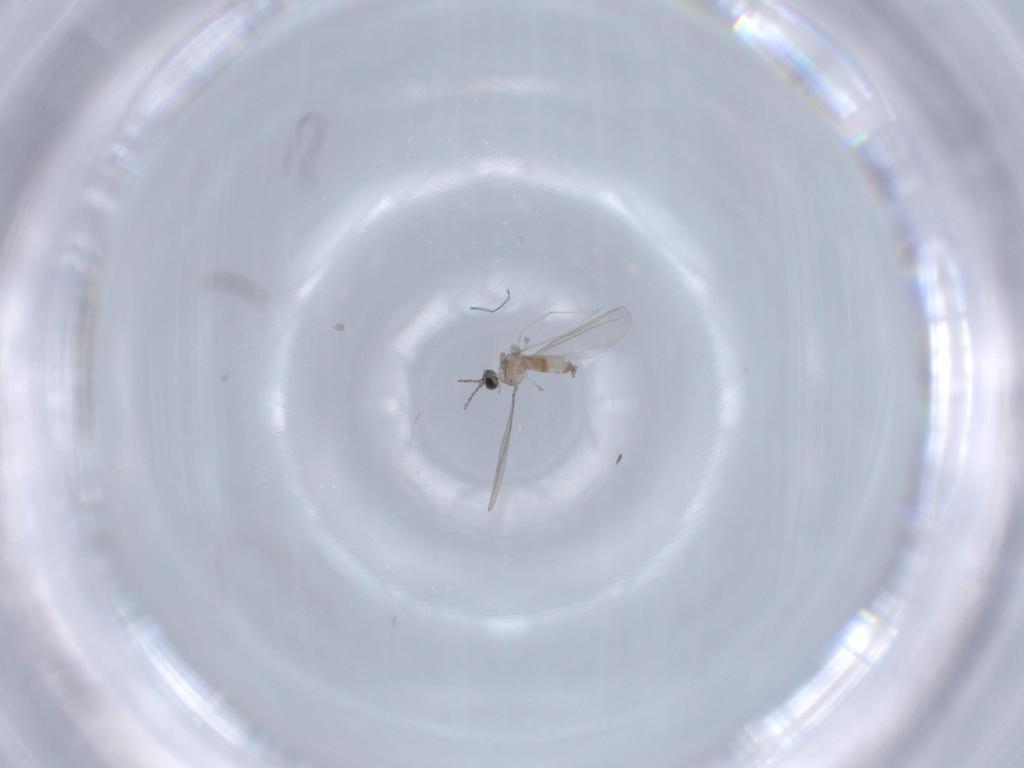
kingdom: Animalia
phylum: Arthropoda
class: Insecta
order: Diptera
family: Cecidomyiidae
